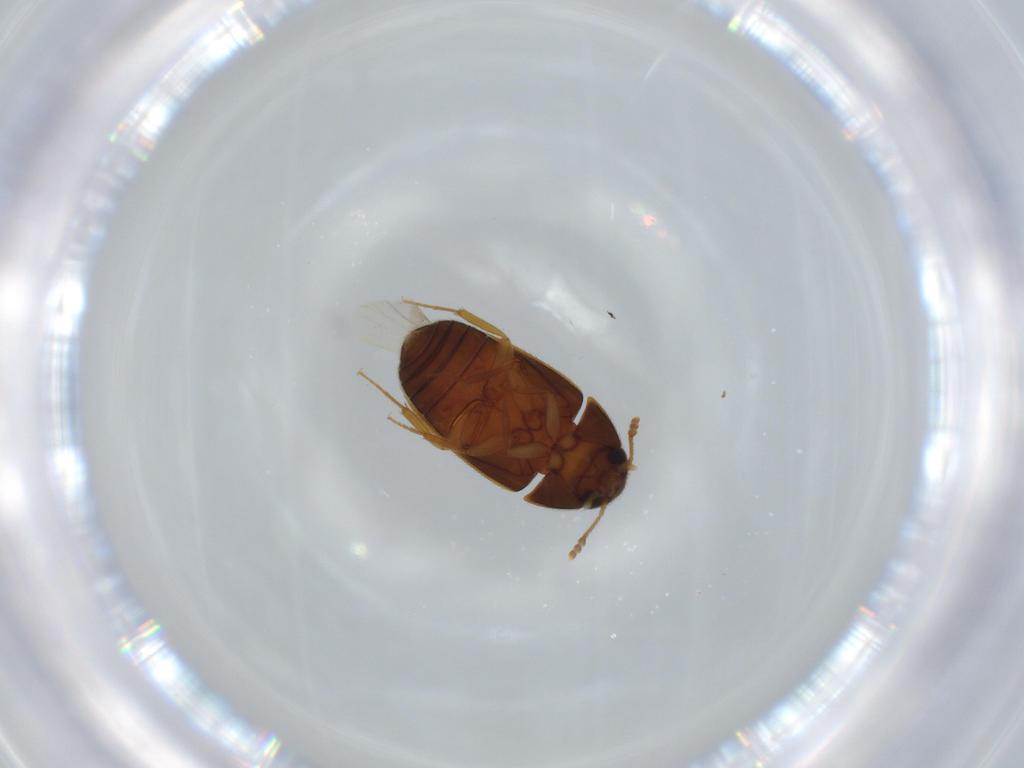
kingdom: Animalia
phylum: Arthropoda
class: Insecta
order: Coleoptera
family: Mycetophagidae
